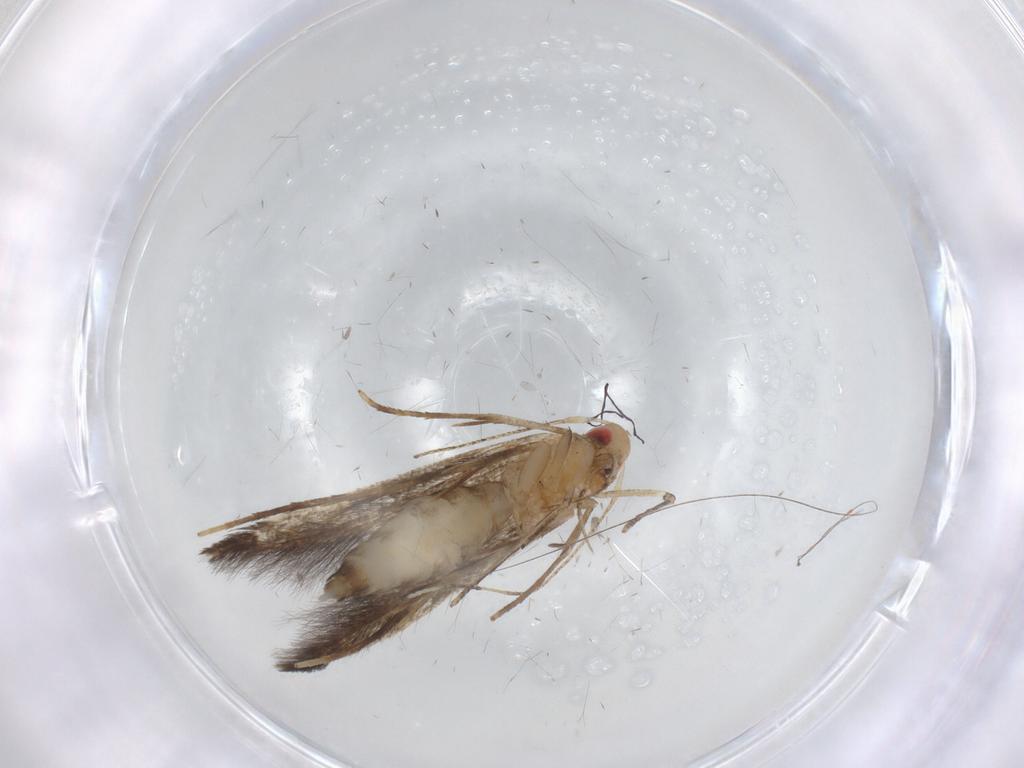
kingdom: Animalia
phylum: Arthropoda
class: Insecta
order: Lepidoptera
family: Cosmopterigidae
